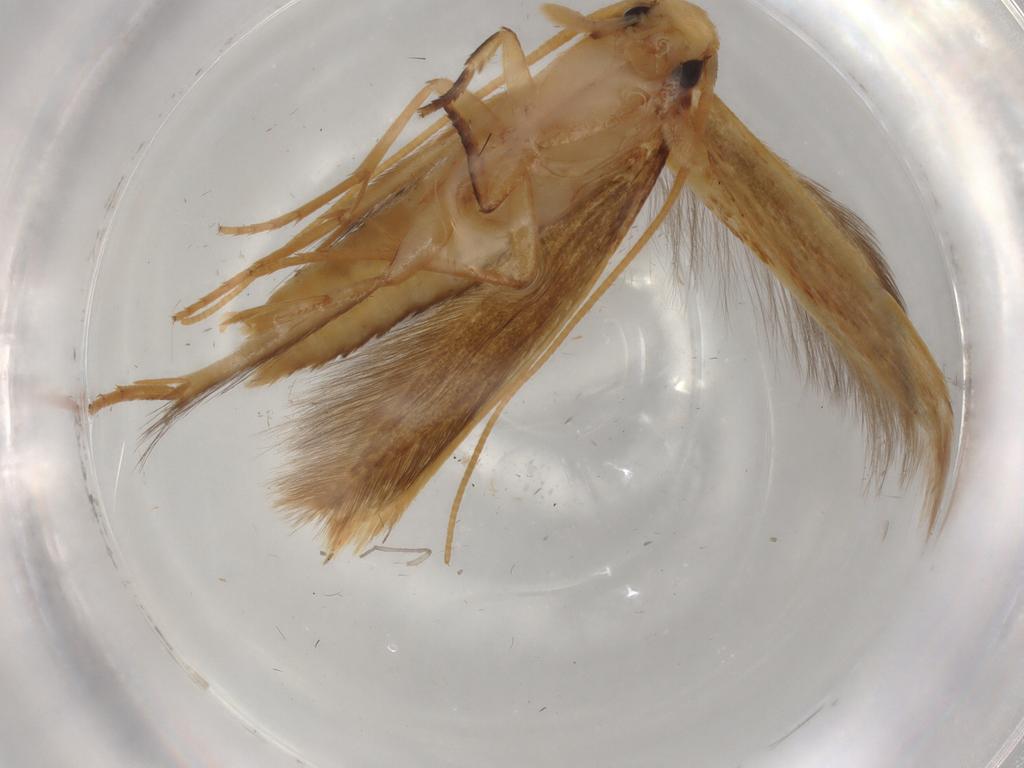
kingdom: Animalia
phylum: Arthropoda
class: Insecta
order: Lepidoptera
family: Tineidae
